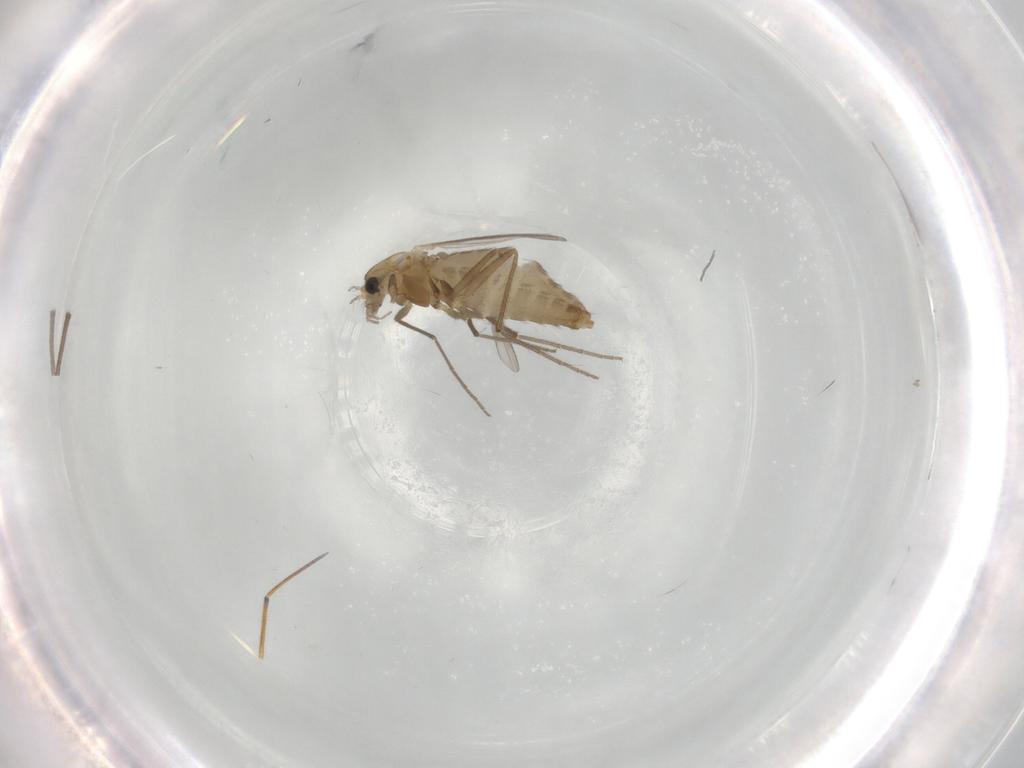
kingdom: Animalia
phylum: Arthropoda
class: Insecta
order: Diptera
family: Chironomidae
